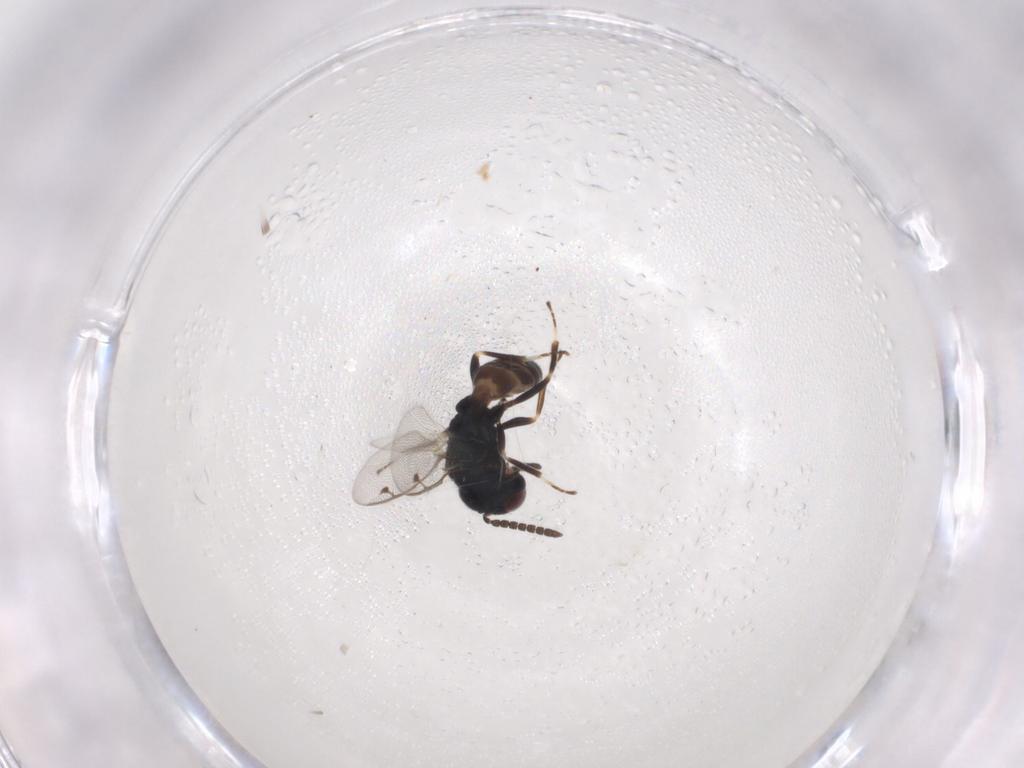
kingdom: Animalia
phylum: Arthropoda
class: Insecta
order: Hymenoptera
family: Pteromalidae
